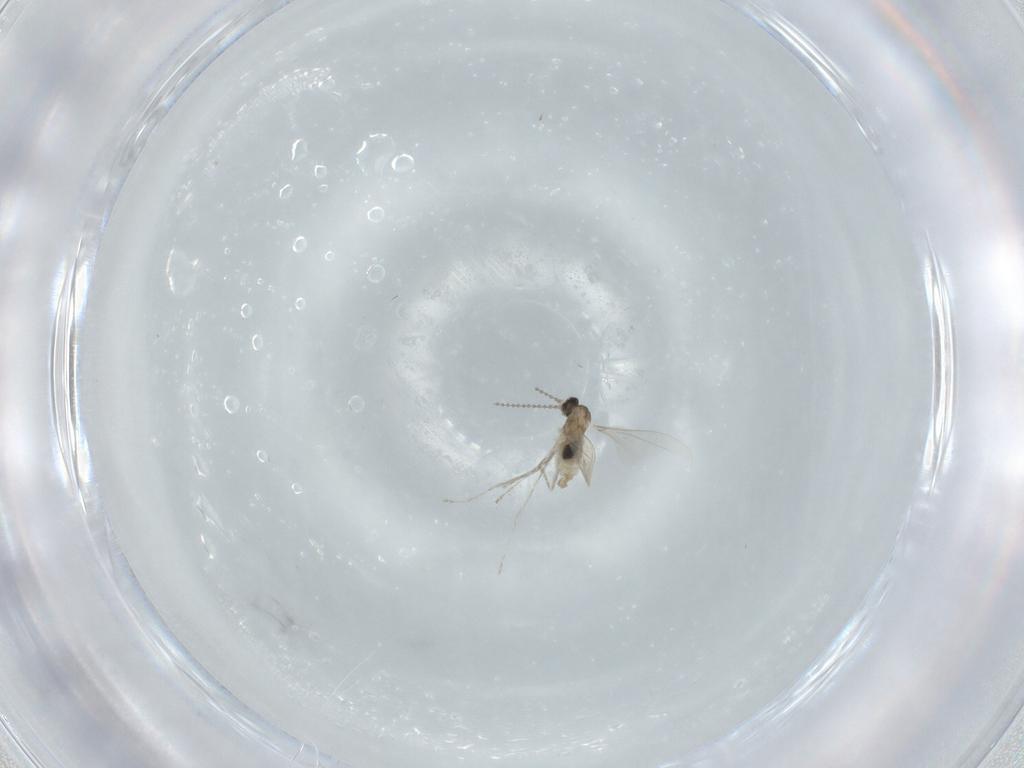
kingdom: Animalia
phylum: Arthropoda
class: Insecta
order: Diptera
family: Cecidomyiidae
